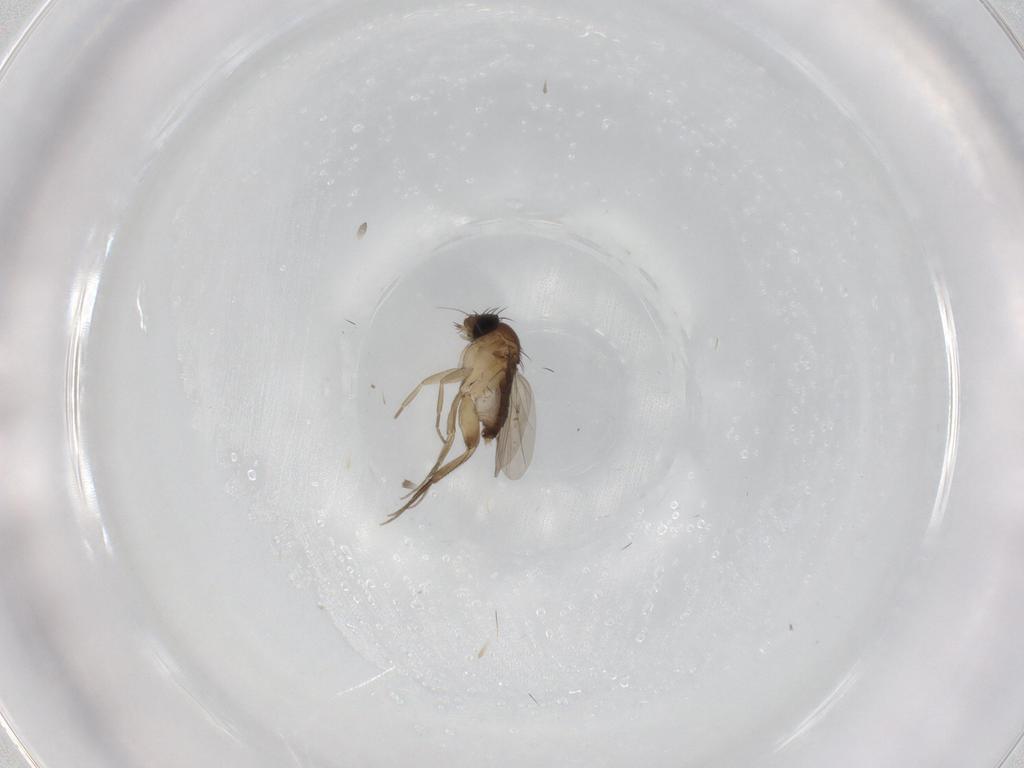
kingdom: Animalia
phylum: Arthropoda
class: Insecta
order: Diptera
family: Phoridae
